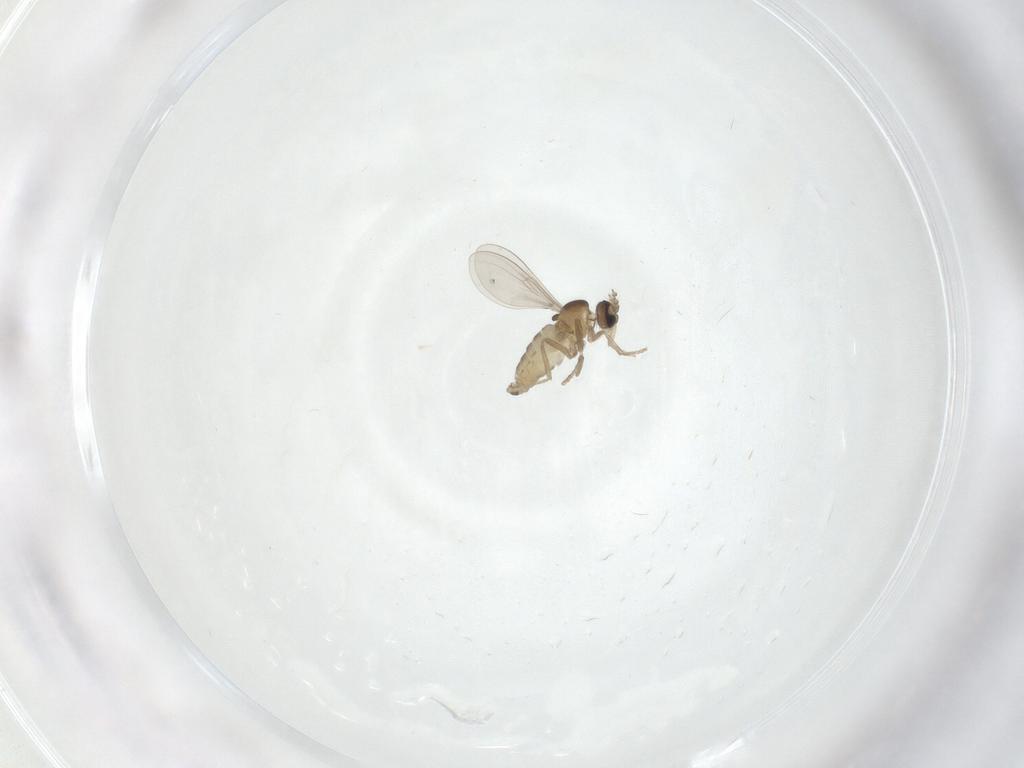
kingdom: Animalia
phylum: Arthropoda
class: Insecta
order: Diptera
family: Cecidomyiidae
